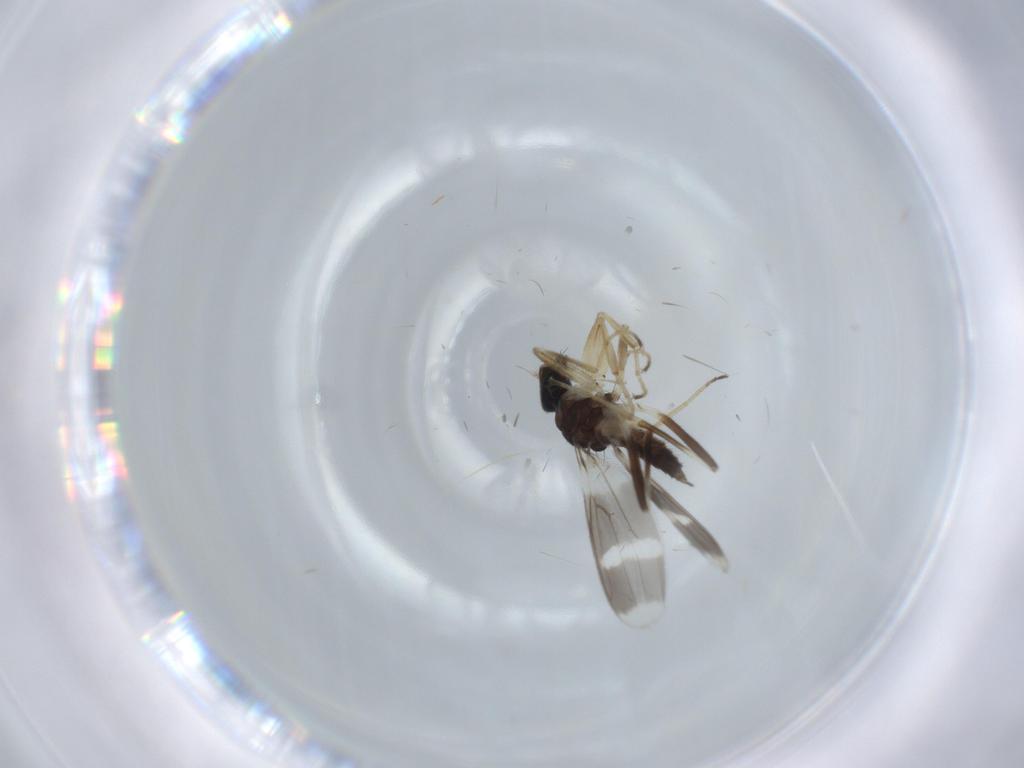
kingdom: Animalia
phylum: Arthropoda
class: Insecta
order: Diptera
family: Hybotidae
